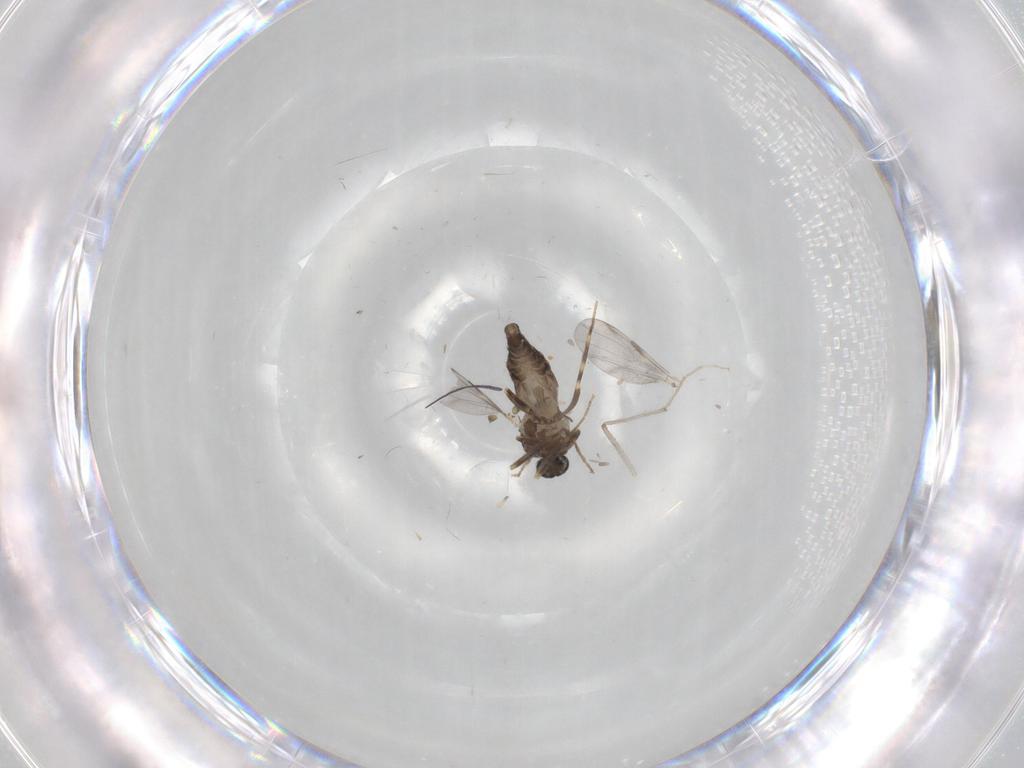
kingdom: Animalia
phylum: Arthropoda
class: Insecta
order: Diptera
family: Ceratopogonidae
